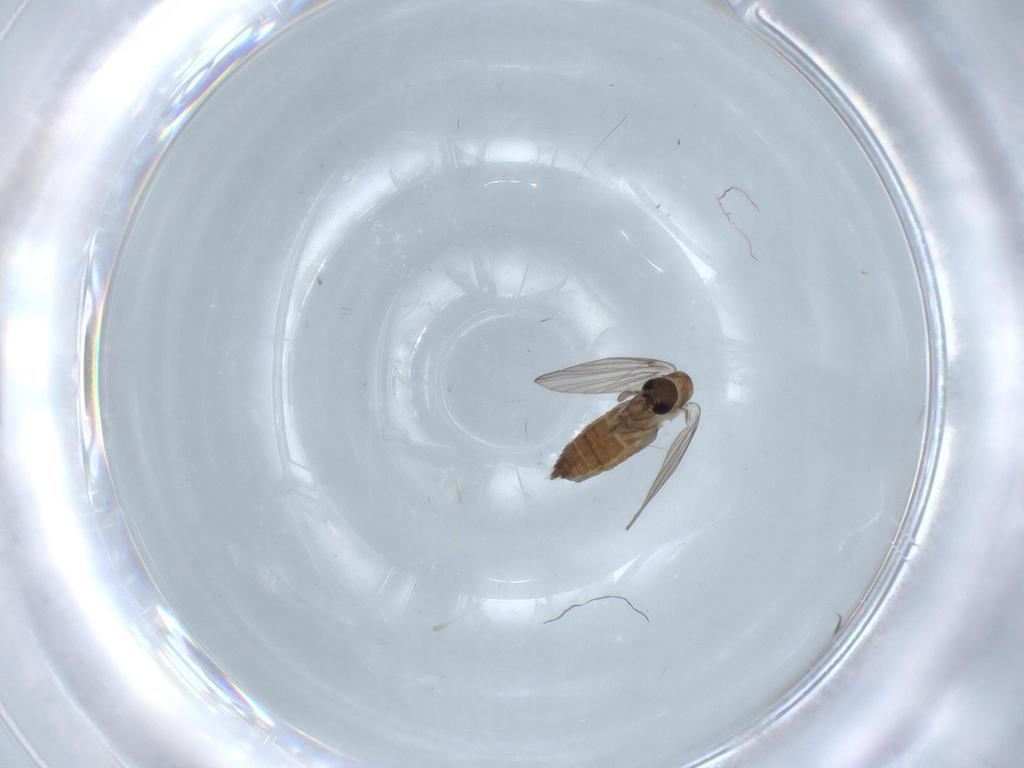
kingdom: Animalia
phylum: Arthropoda
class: Insecta
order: Diptera
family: Psychodidae
